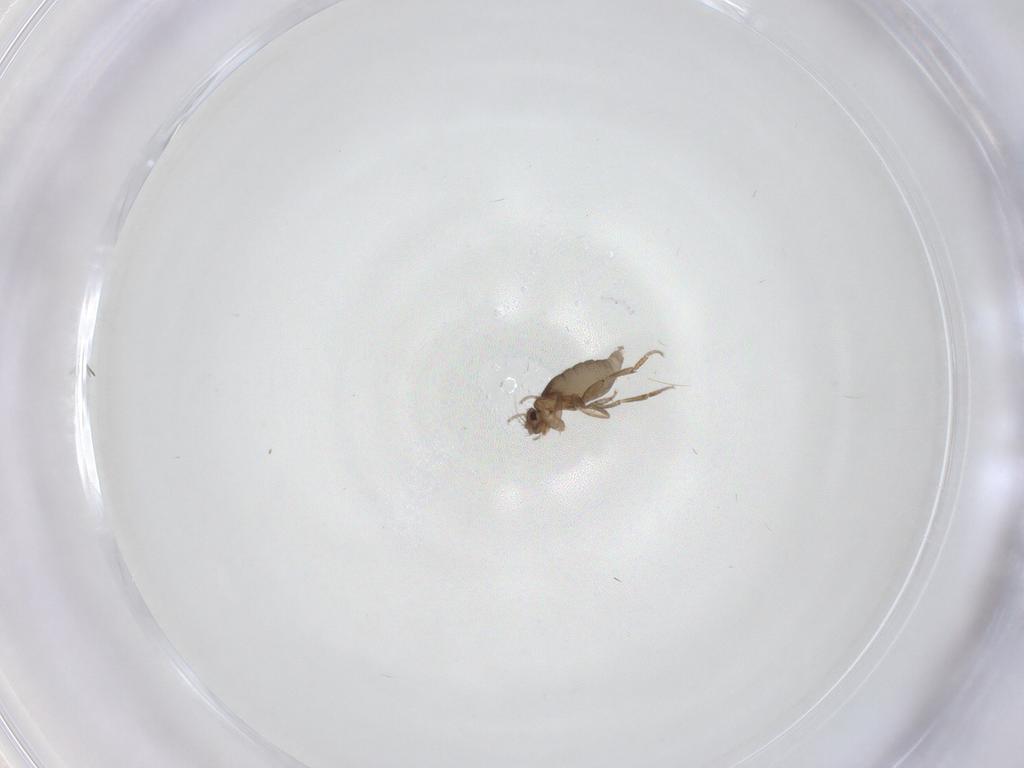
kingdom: Animalia
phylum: Arthropoda
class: Insecta
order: Diptera
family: Phoridae
